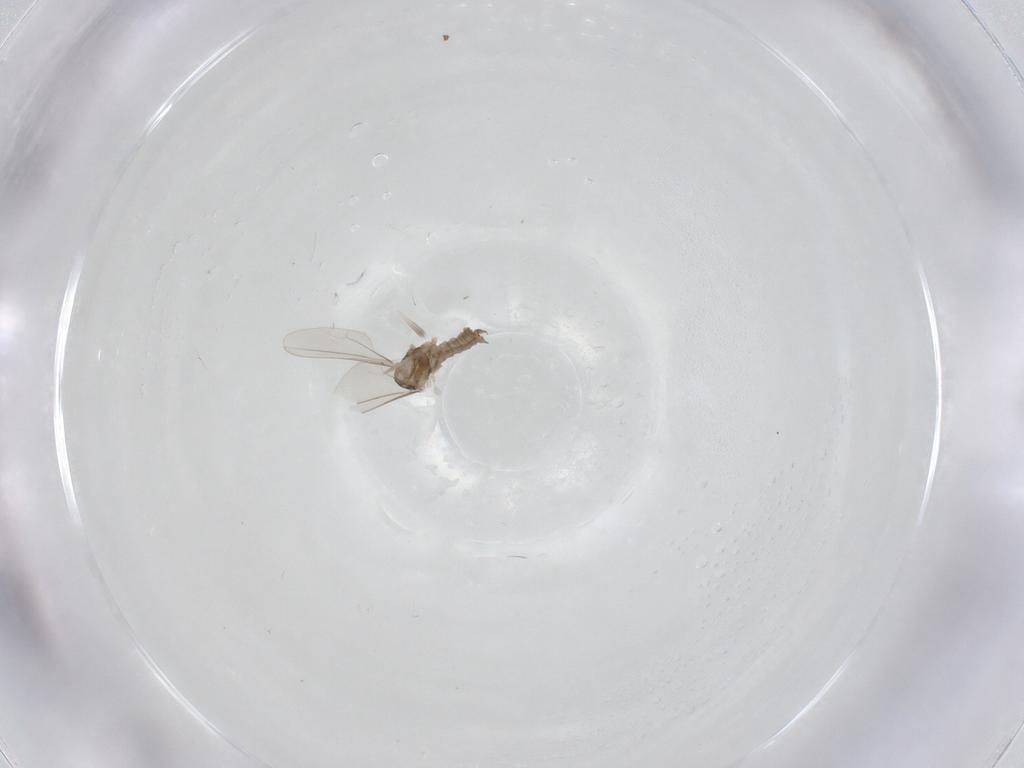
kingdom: Animalia
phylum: Arthropoda
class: Insecta
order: Diptera
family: Cecidomyiidae
